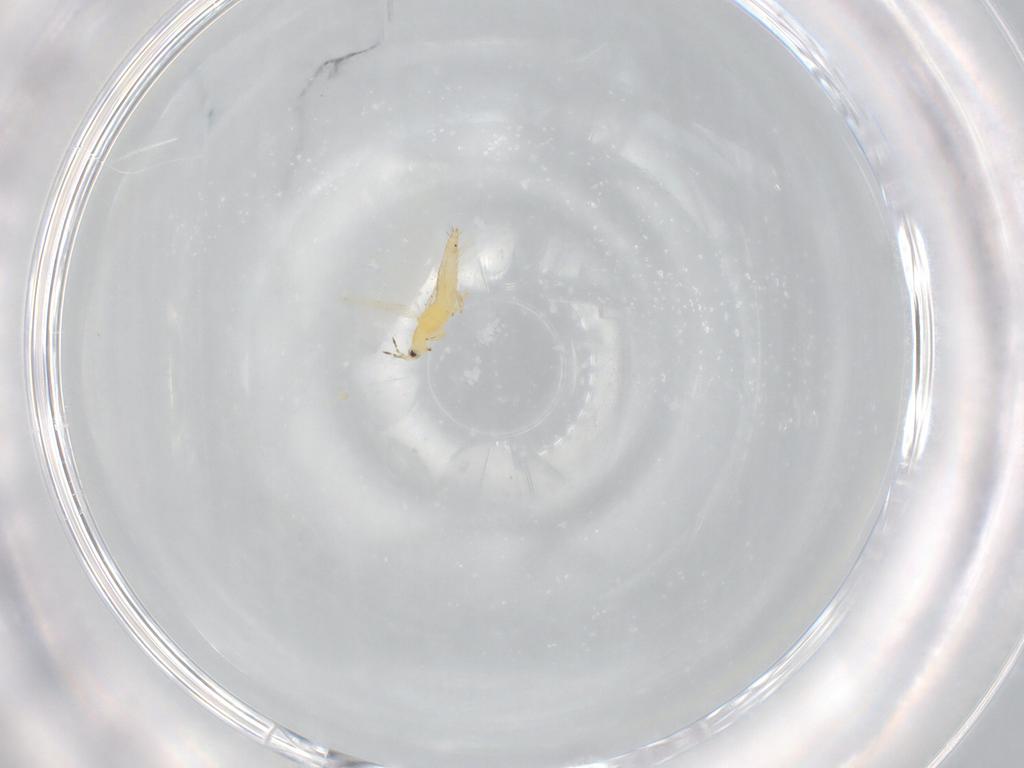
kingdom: Animalia
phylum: Arthropoda
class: Insecta
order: Thysanoptera
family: Thripidae
